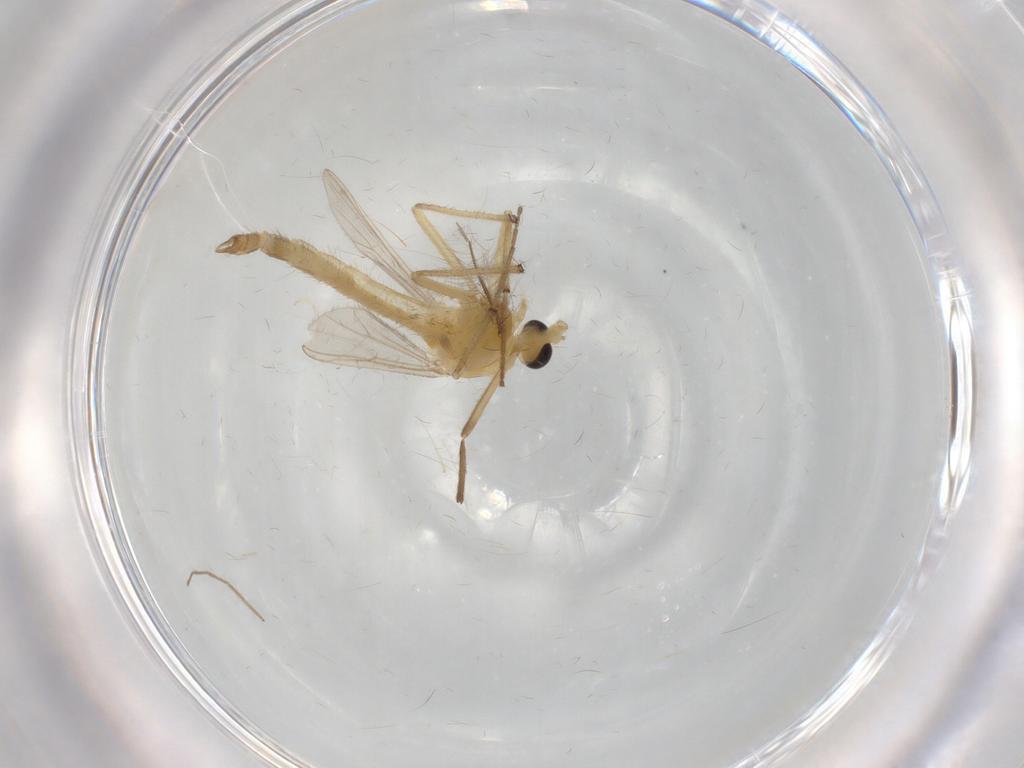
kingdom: Animalia
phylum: Arthropoda
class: Insecta
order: Diptera
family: Chironomidae
